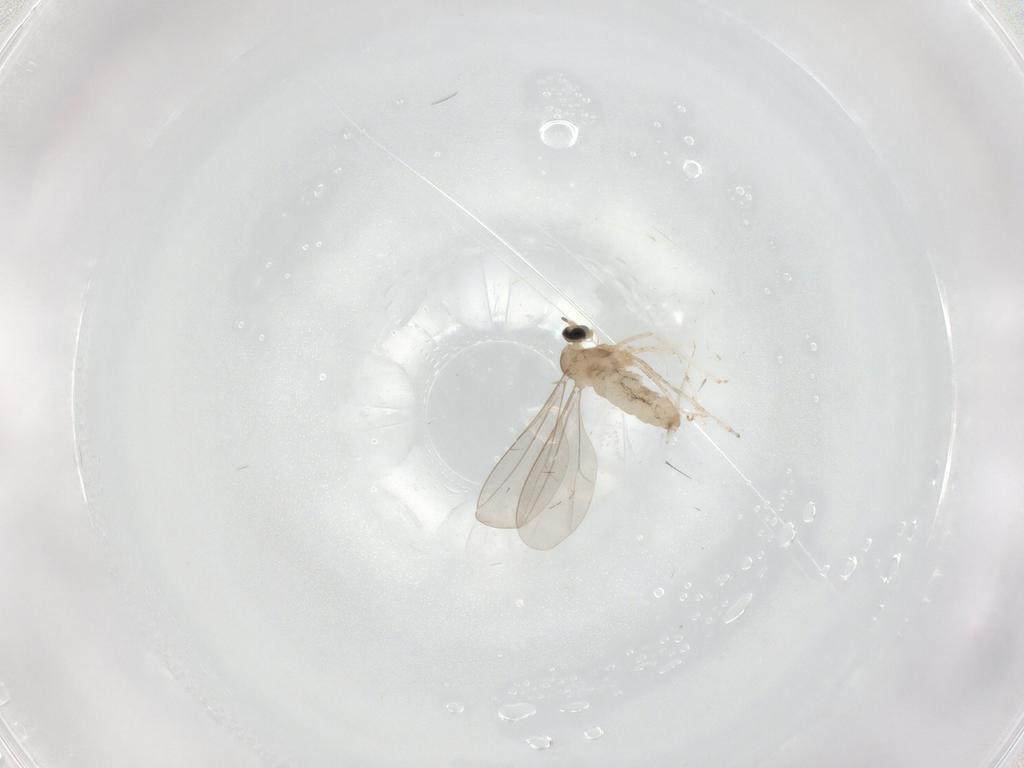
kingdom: Animalia
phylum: Arthropoda
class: Insecta
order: Diptera
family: Cecidomyiidae
